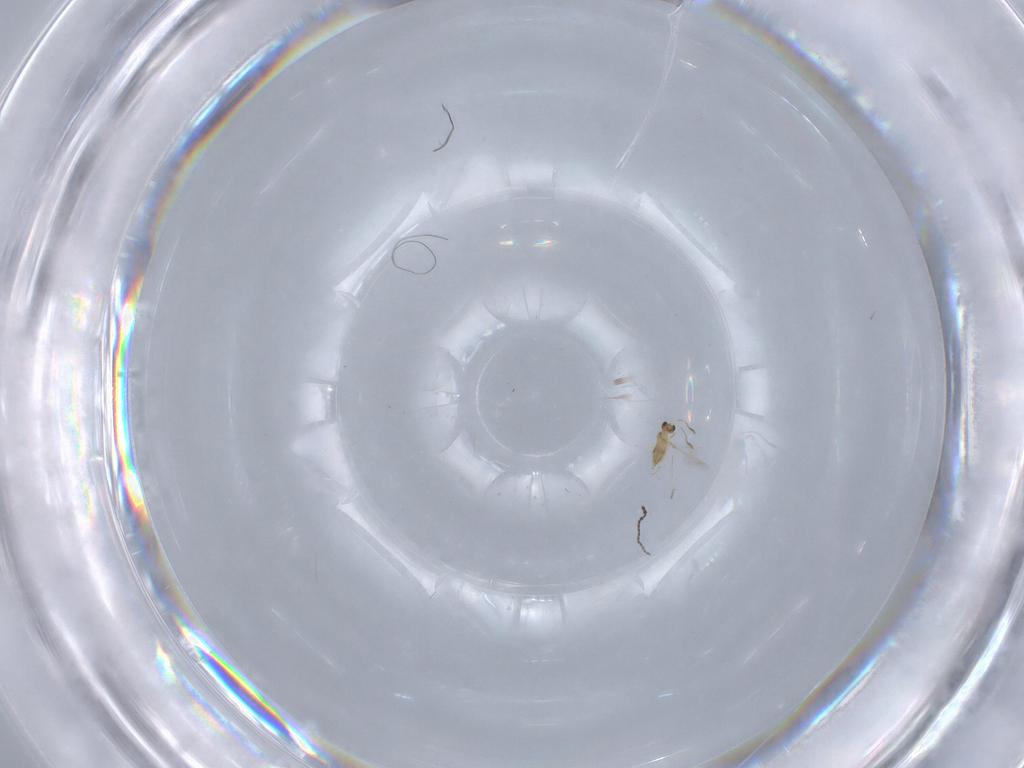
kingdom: Animalia
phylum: Arthropoda
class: Insecta
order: Hymenoptera
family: Mymaridae
